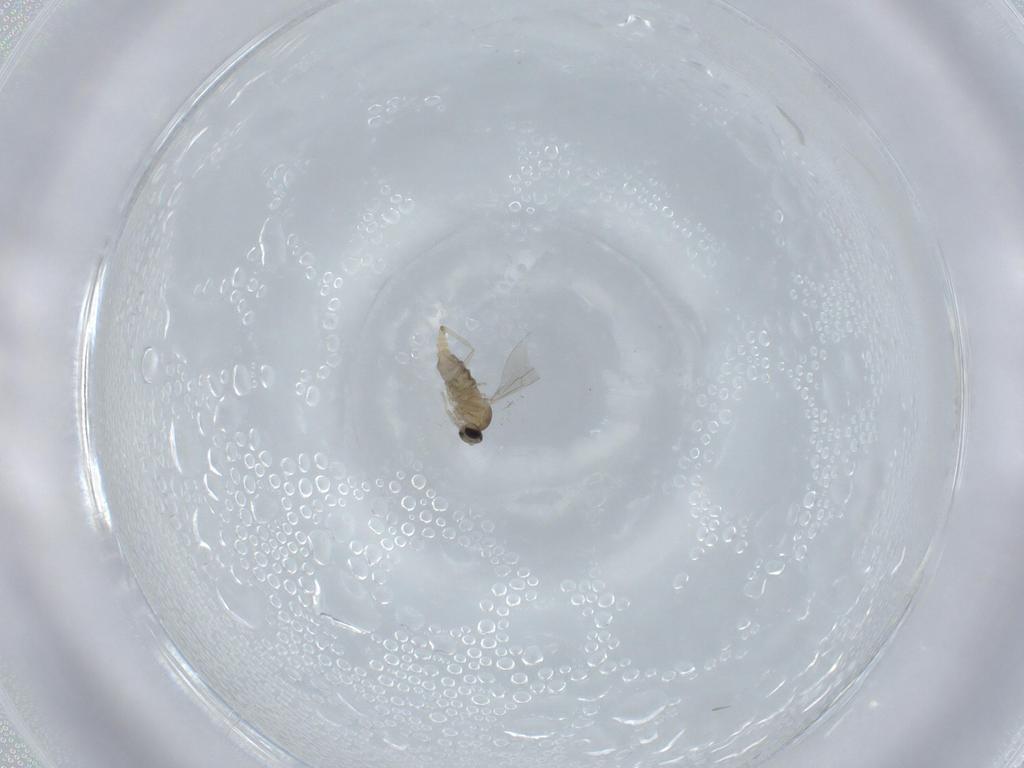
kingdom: Animalia
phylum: Arthropoda
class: Insecta
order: Diptera
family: Cecidomyiidae
